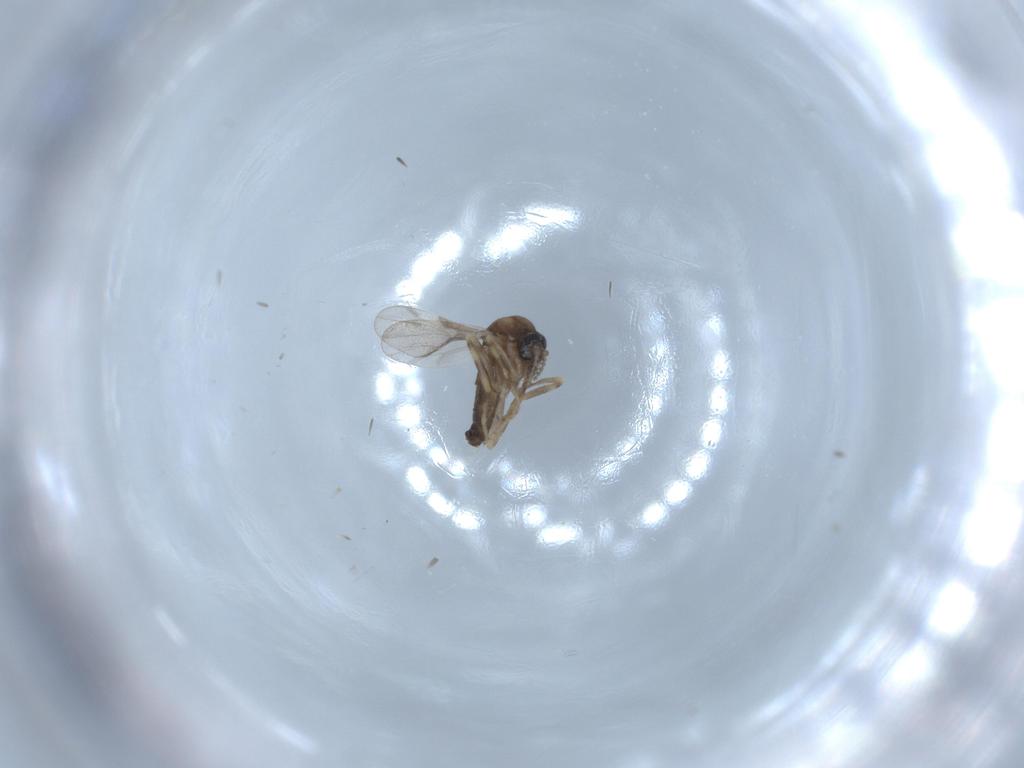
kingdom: Animalia
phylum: Arthropoda
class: Insecta
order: Diptera
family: Ceratopogonidae
